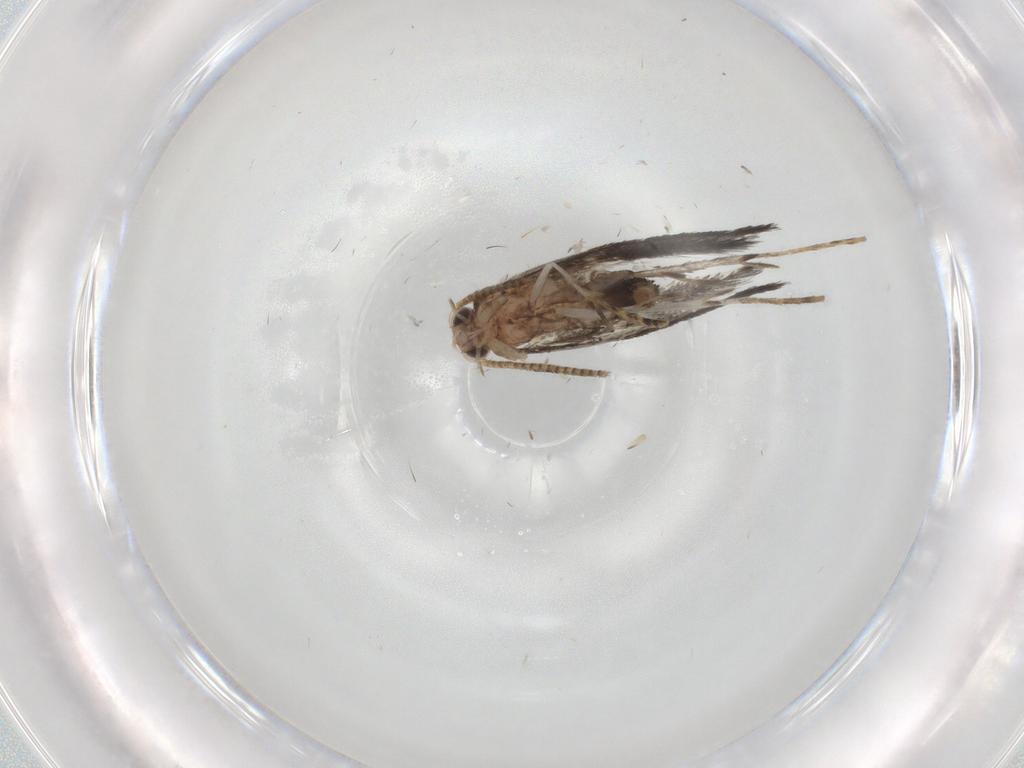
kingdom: Animalia
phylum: Arthropoda
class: Insecta
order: Lepidoptera
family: Tineidae
